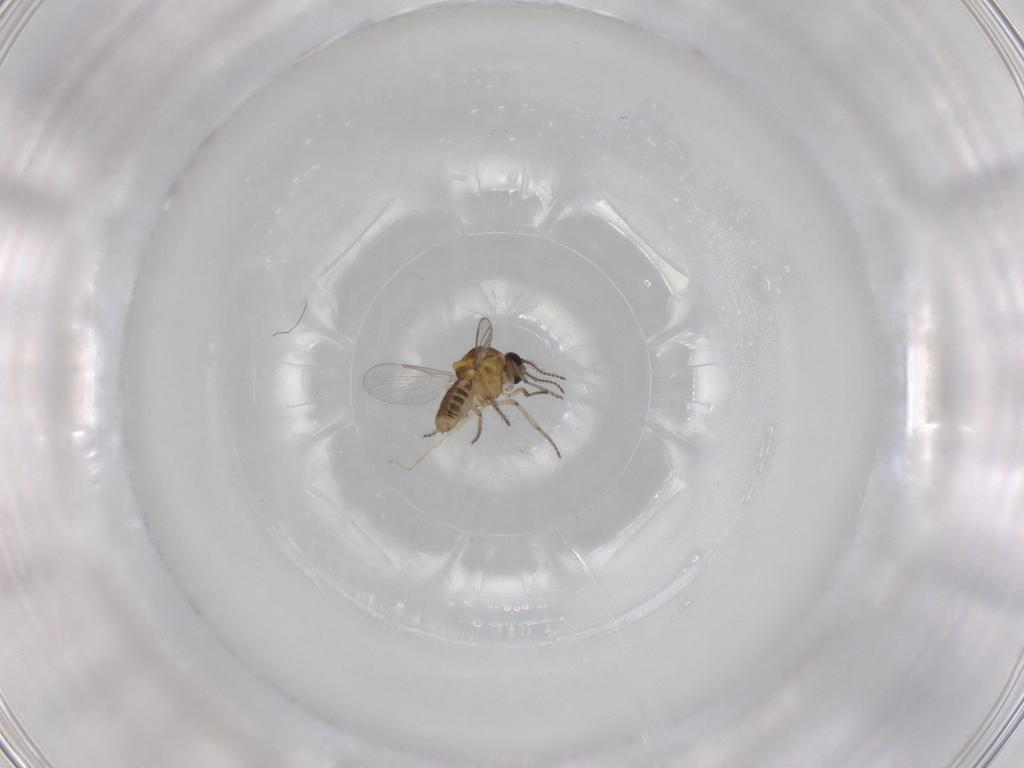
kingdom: Animalia
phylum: Arthropoda
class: Insecta
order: Diptera
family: Ceratopogonidae
